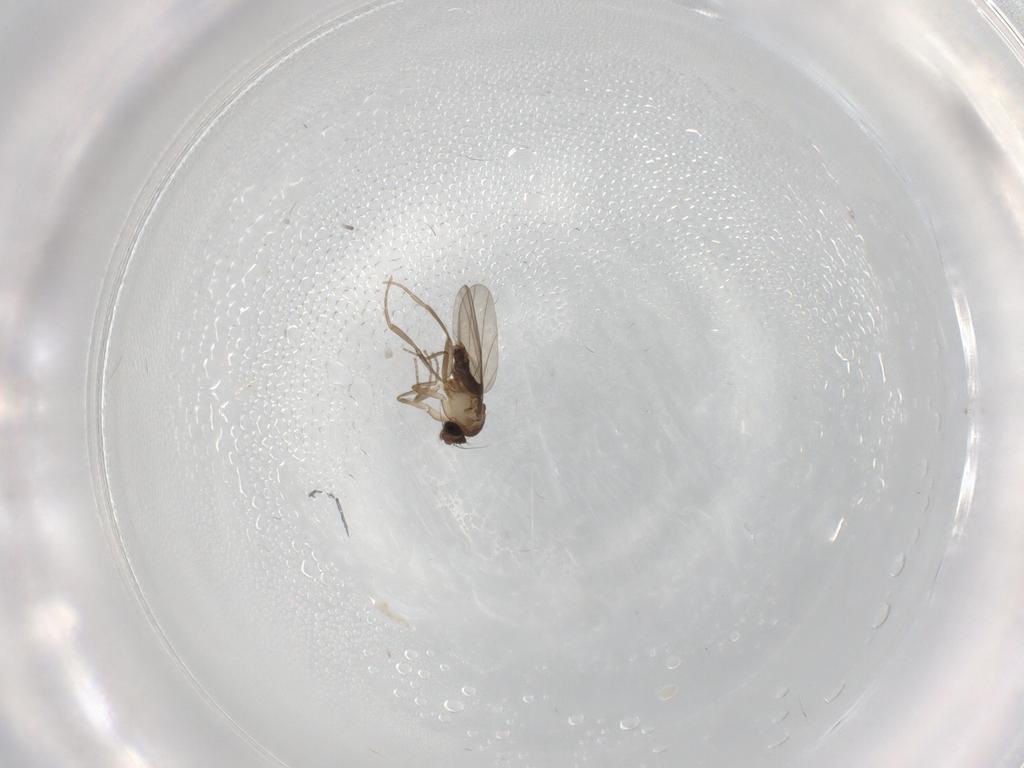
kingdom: Animalia
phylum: Arthropoda
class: Insecta
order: Diptera
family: Phoridae
